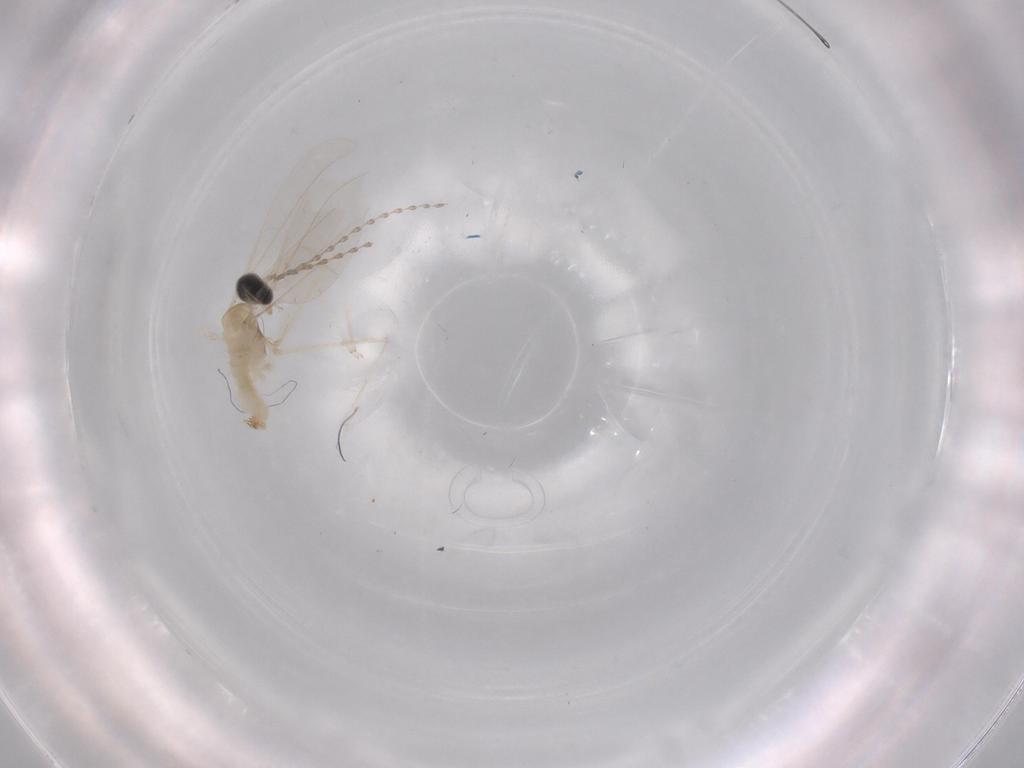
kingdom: Animalia
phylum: Arthropoda
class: Insecta
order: Diptera
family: Cecidomyiidae
